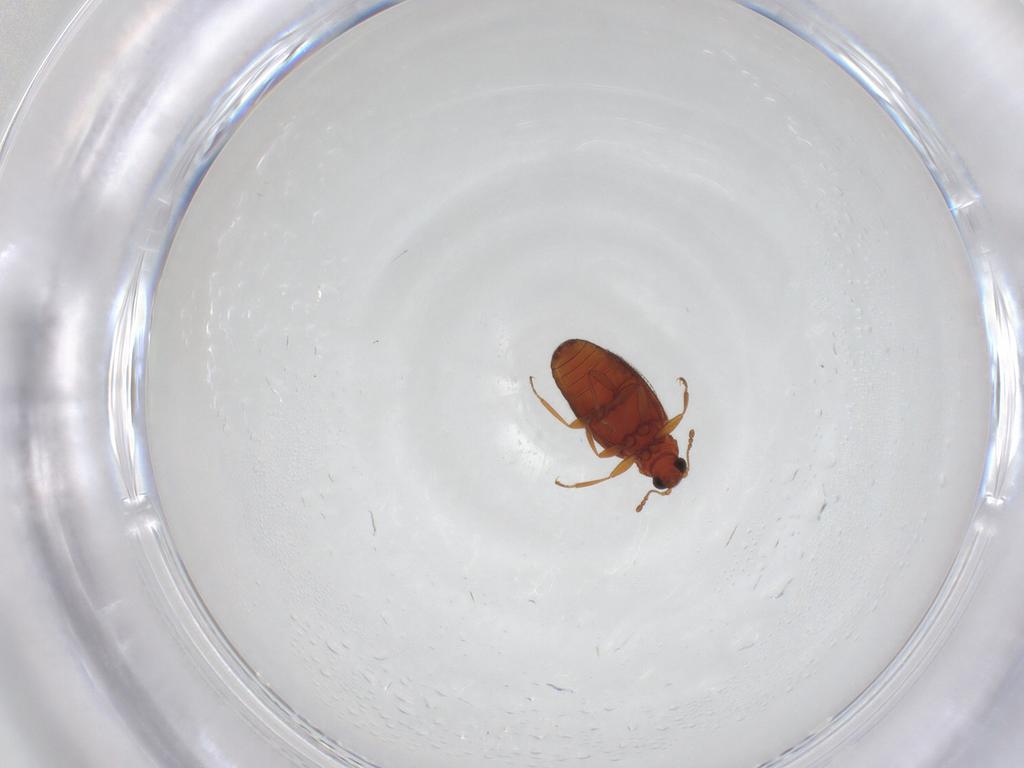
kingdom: Animalia
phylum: Arthropoda
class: Insecta
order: Coleoptera
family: Latridiidae
